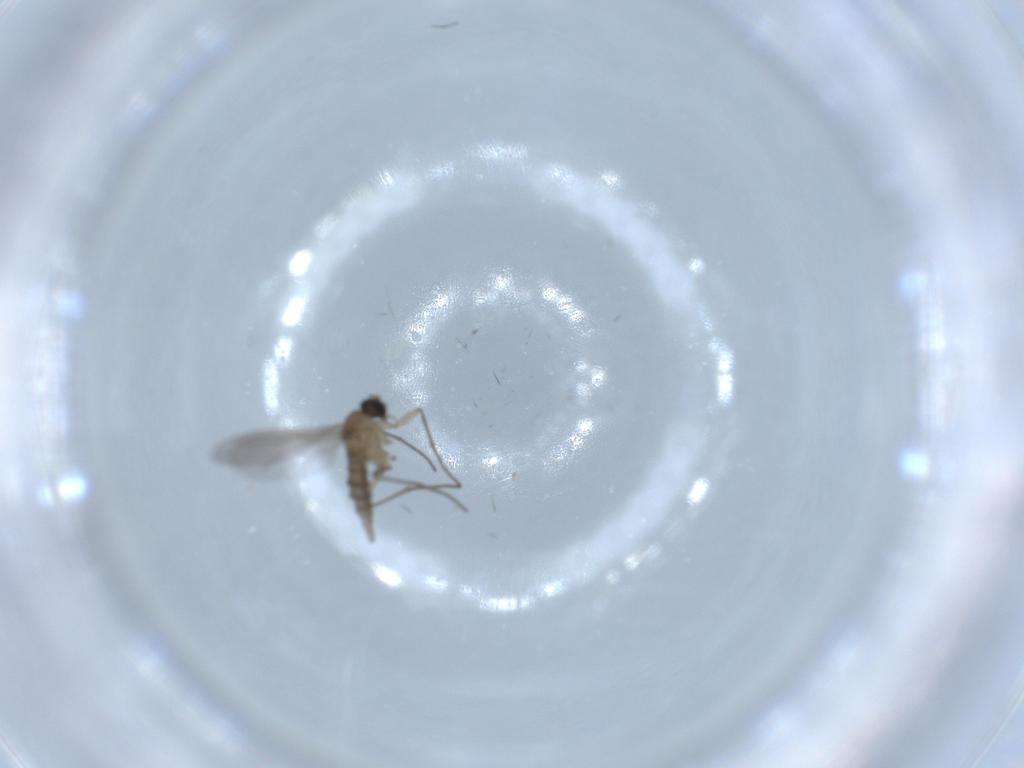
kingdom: Animalia
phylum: Arthropoda
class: Insecta
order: Diptera
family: Sciaridae
